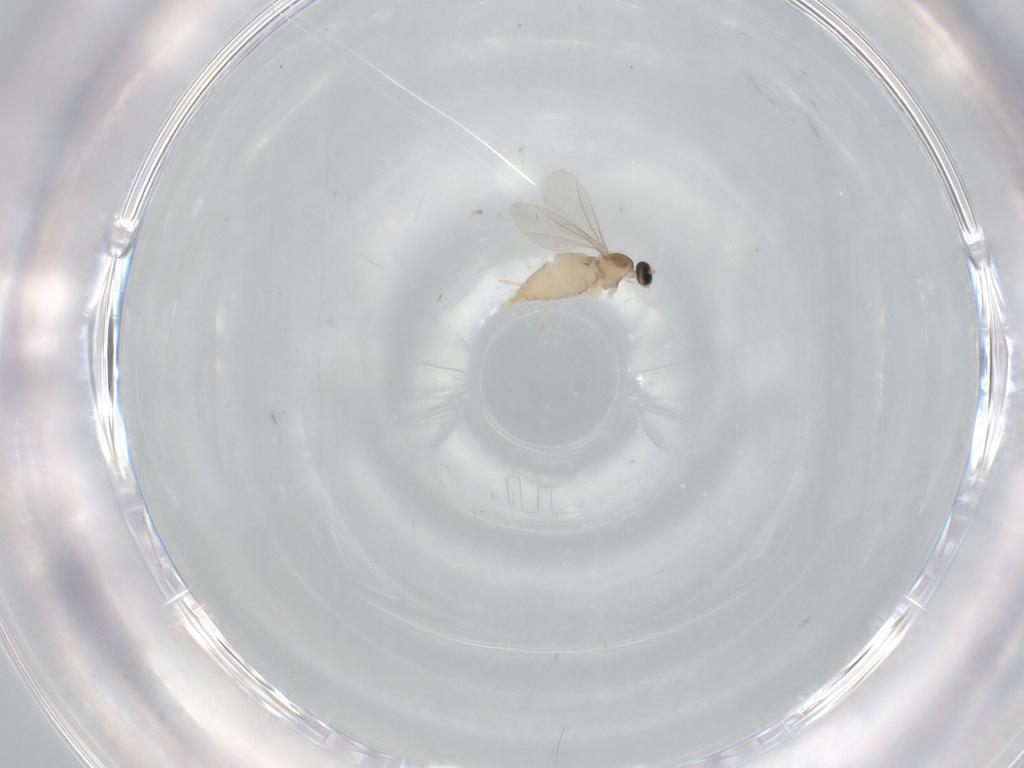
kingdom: Animalia
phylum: Arthropoda
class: Insecta
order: Diptera
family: Cecidomyiidae
